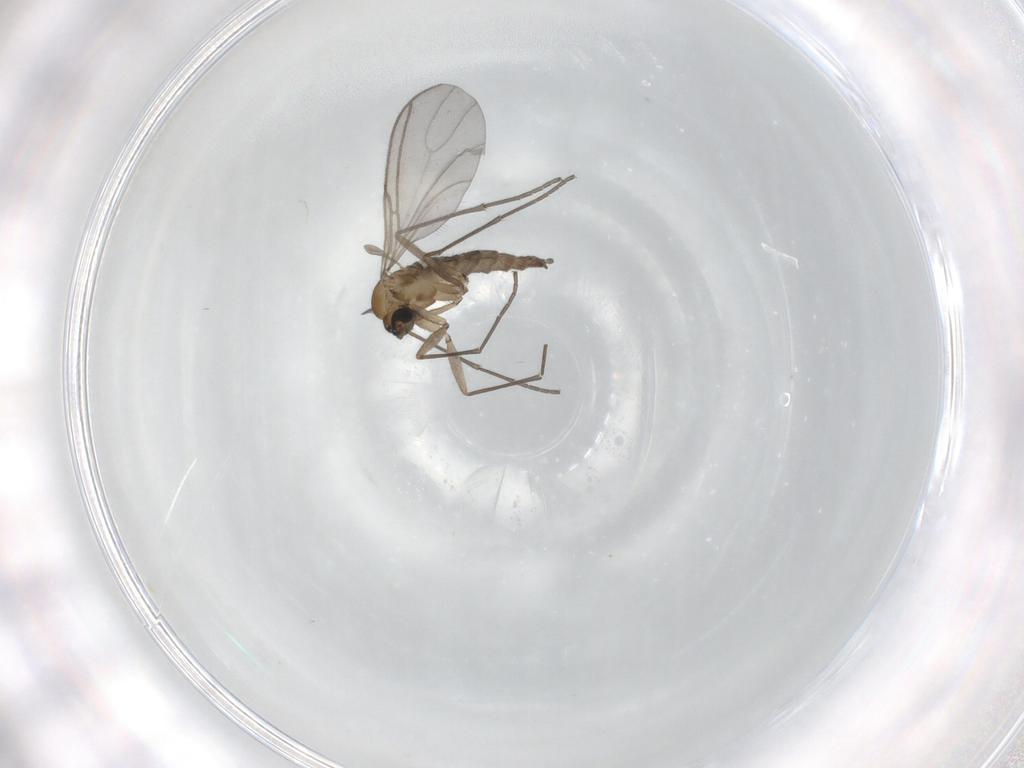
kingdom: Animalia
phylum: Arthropoda
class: Insecta
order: Diptera
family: Sciaridae
